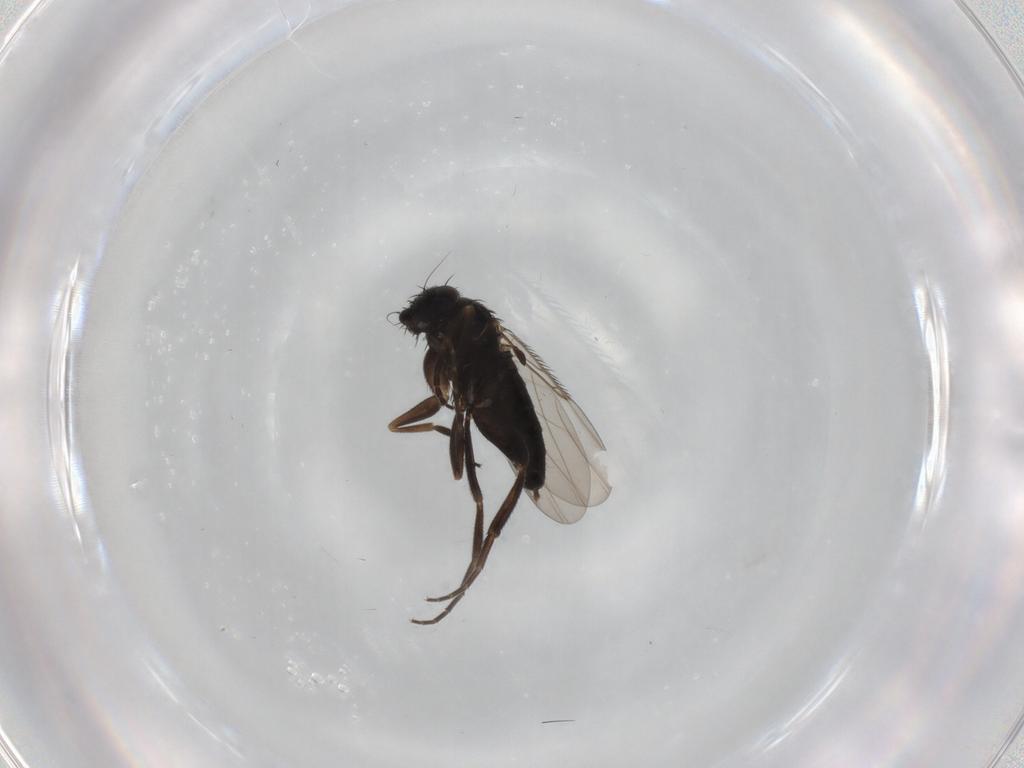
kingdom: Animalia
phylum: Arthropoda
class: Insecta
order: Diptera
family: Phoridae
